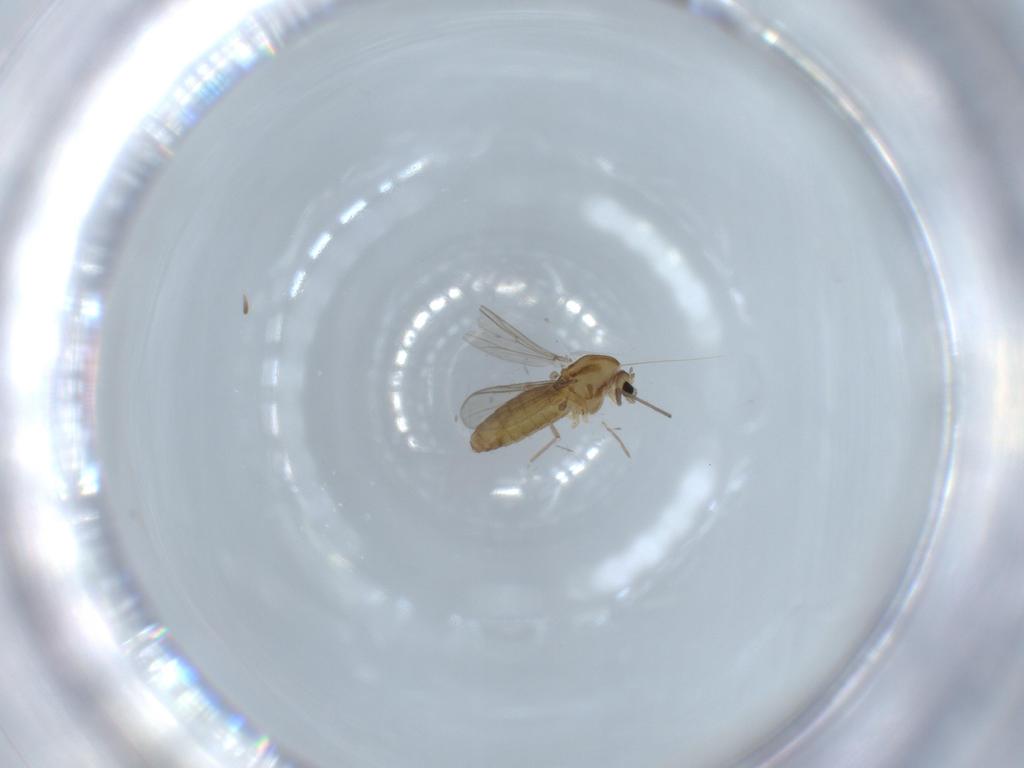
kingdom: Animalia
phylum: Arthropoda
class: Insecta
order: Diptera
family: Chironomidae
